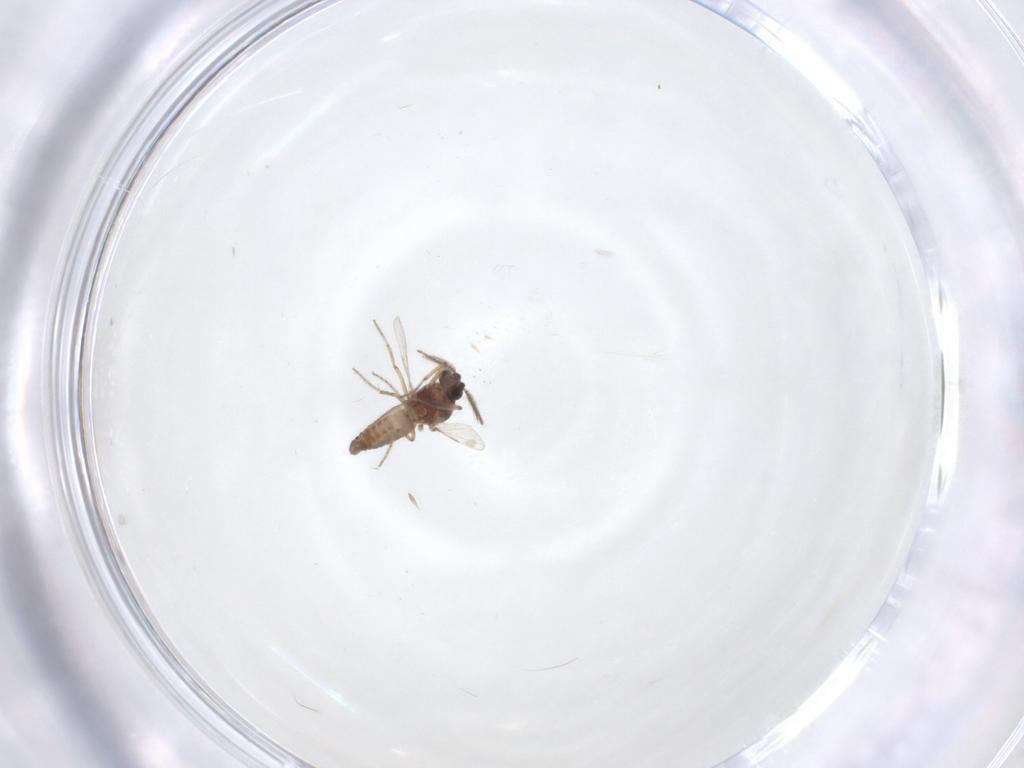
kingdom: Animalia
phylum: Arthropoda
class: Insecta
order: Diptera
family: Ceratopogonidae
